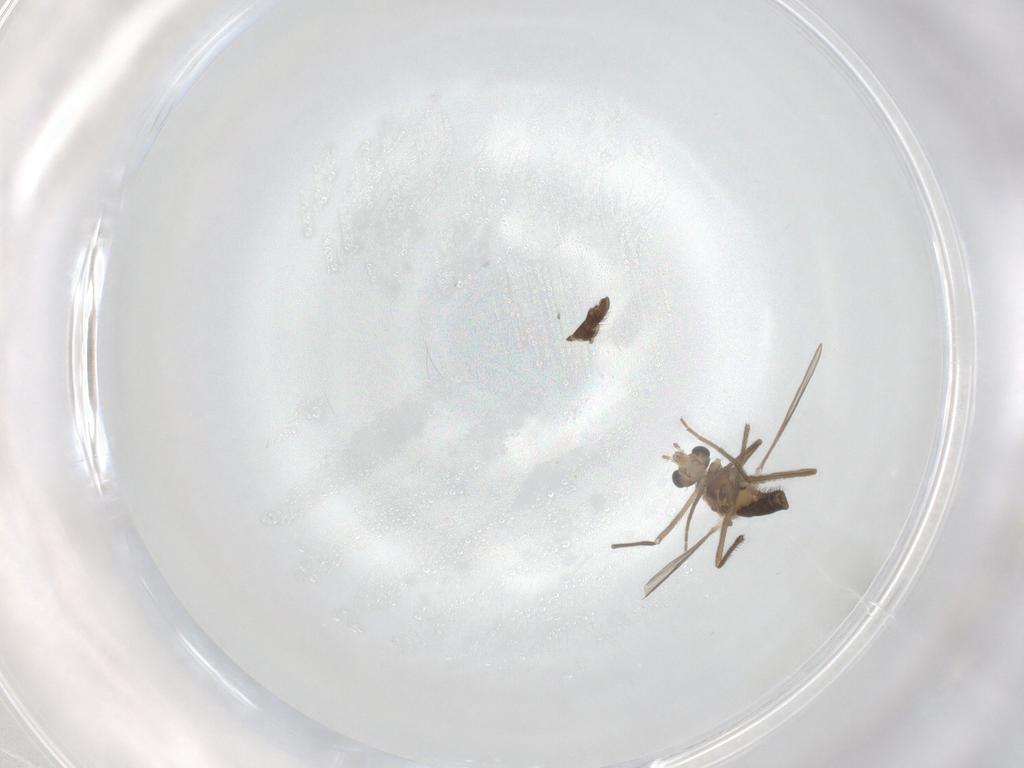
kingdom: Animalia
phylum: Arthropoda
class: Insecta
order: Diptera
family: Chironomidae
